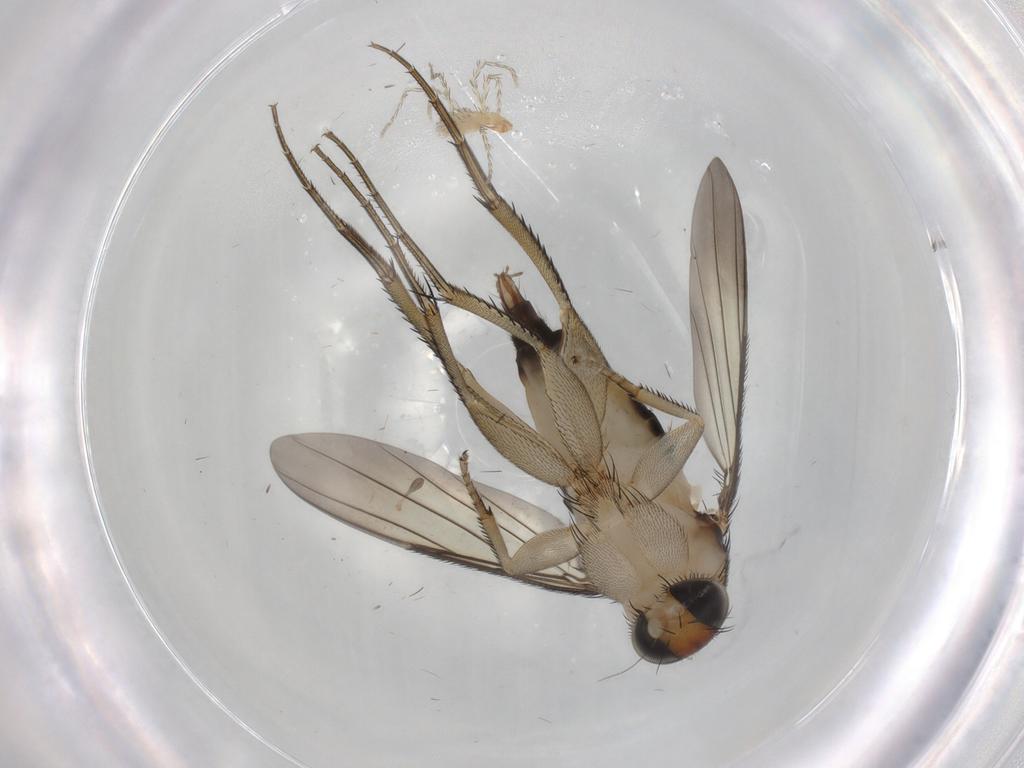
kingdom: Animalia
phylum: Arthropoda
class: Insecta
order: Diptera
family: Phoridae
